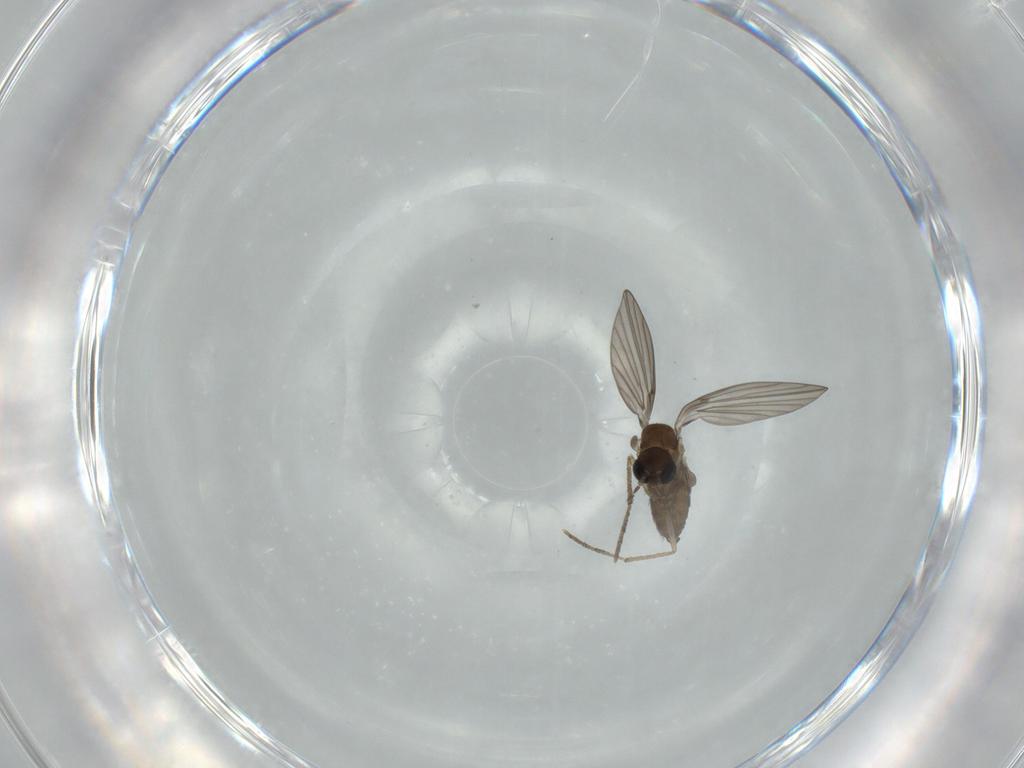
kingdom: Animalia
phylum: Arthropoda
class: Insecta
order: Diptera
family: Psychodidae
